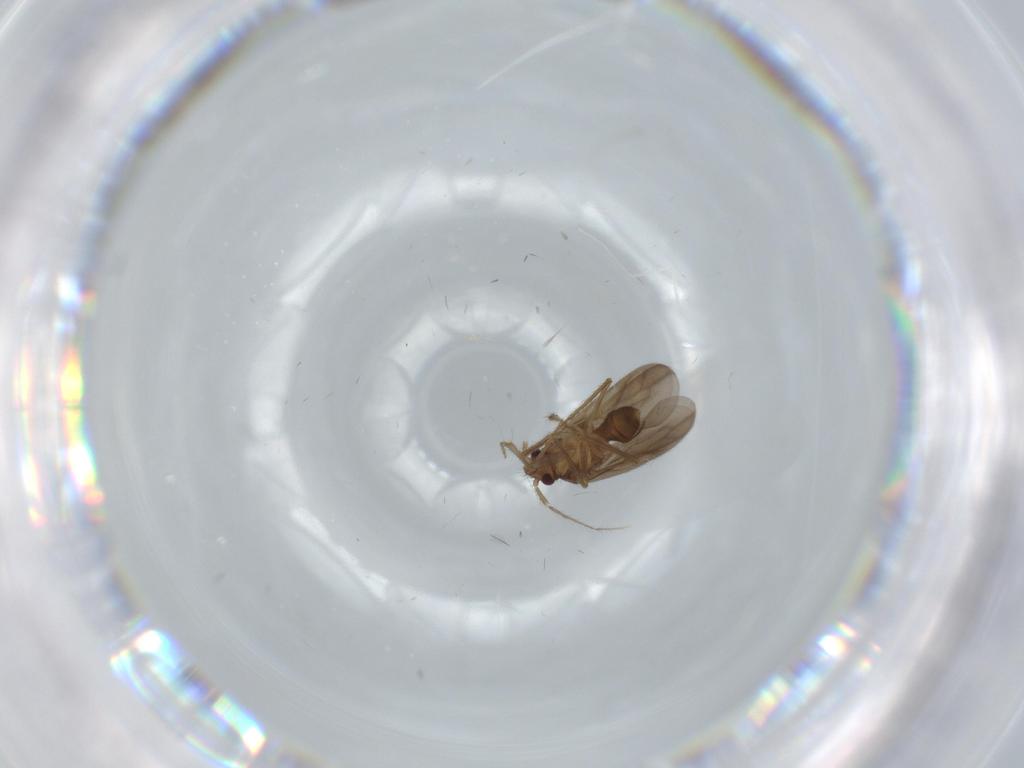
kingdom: Animalia
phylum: Arthropoda
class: Insecta
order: Hemiptera
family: Ceratocombidae
